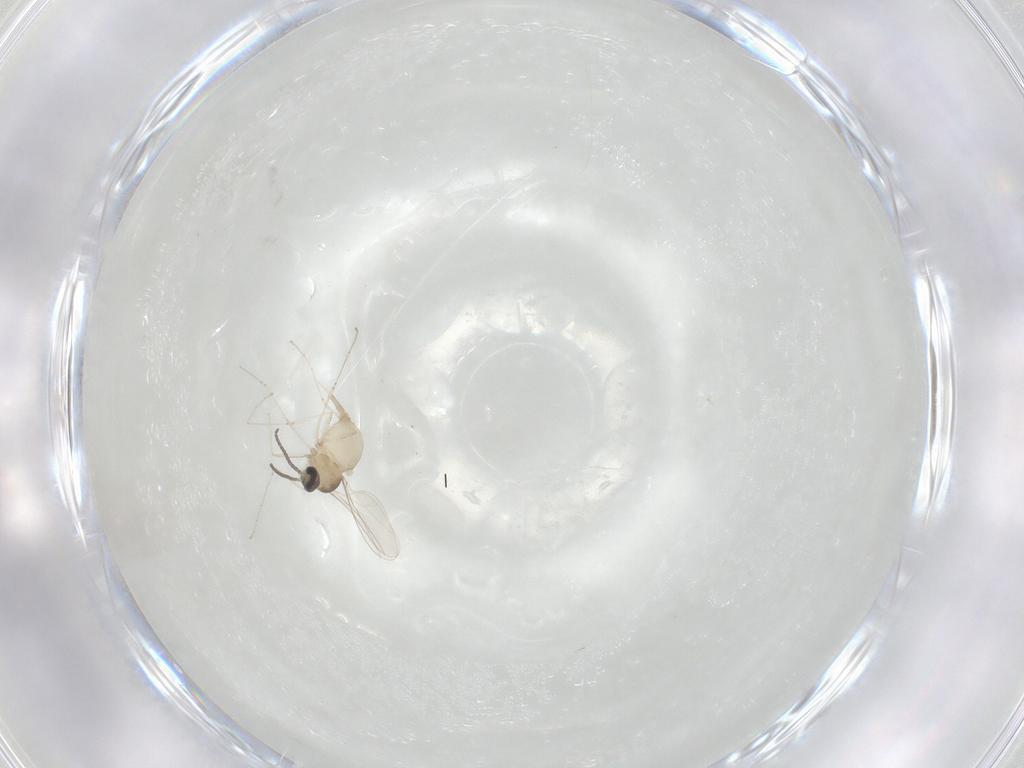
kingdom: Animalia
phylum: Arthropoda
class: Insecta
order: Diptera
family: Cecidomyiidae
